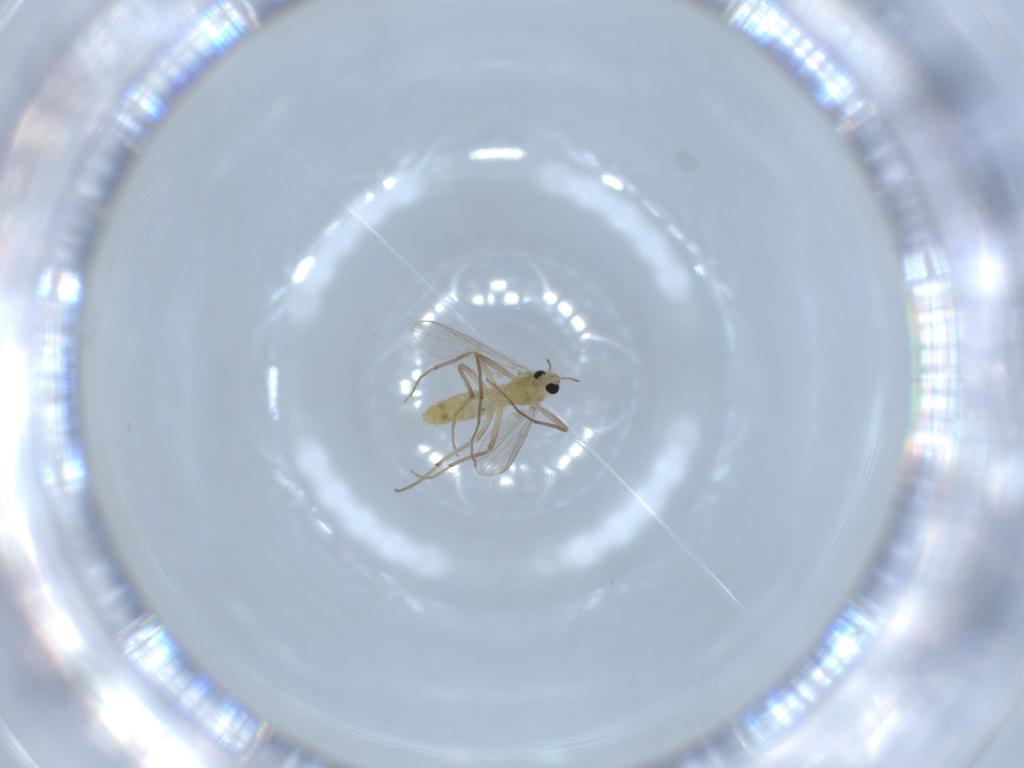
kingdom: Animalia
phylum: Arthropoda
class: Insecta
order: Diptera
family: Chironomidae
